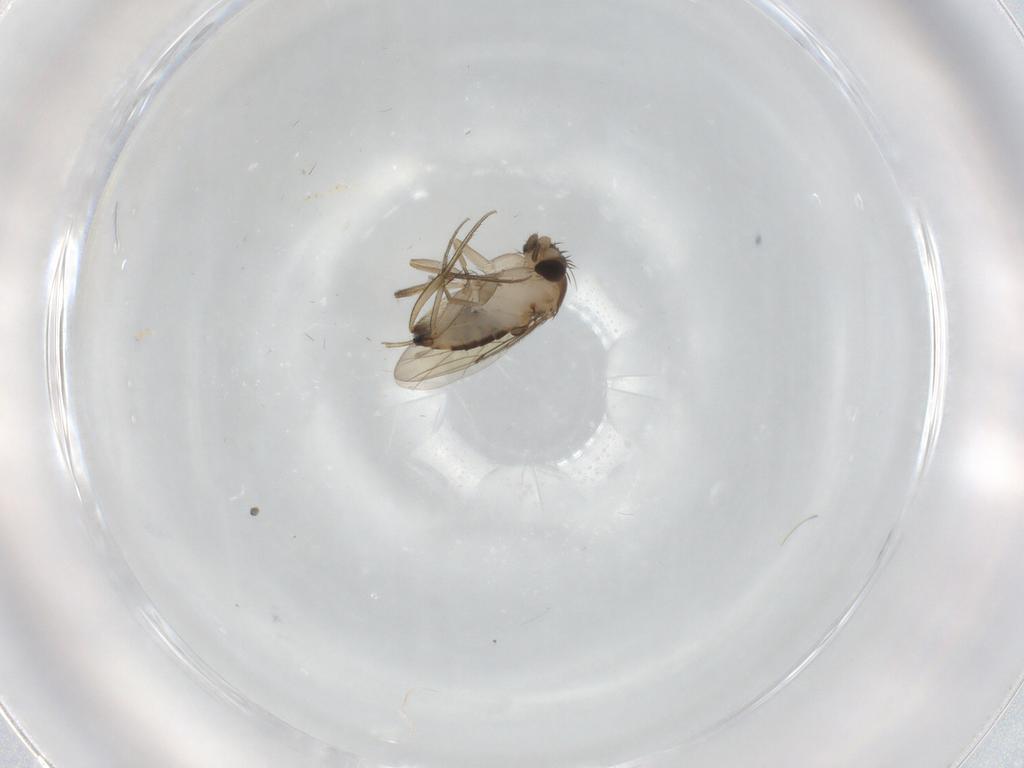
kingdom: Animalia
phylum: Arthropoda
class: Insecta
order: Diptera
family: Phoridae
